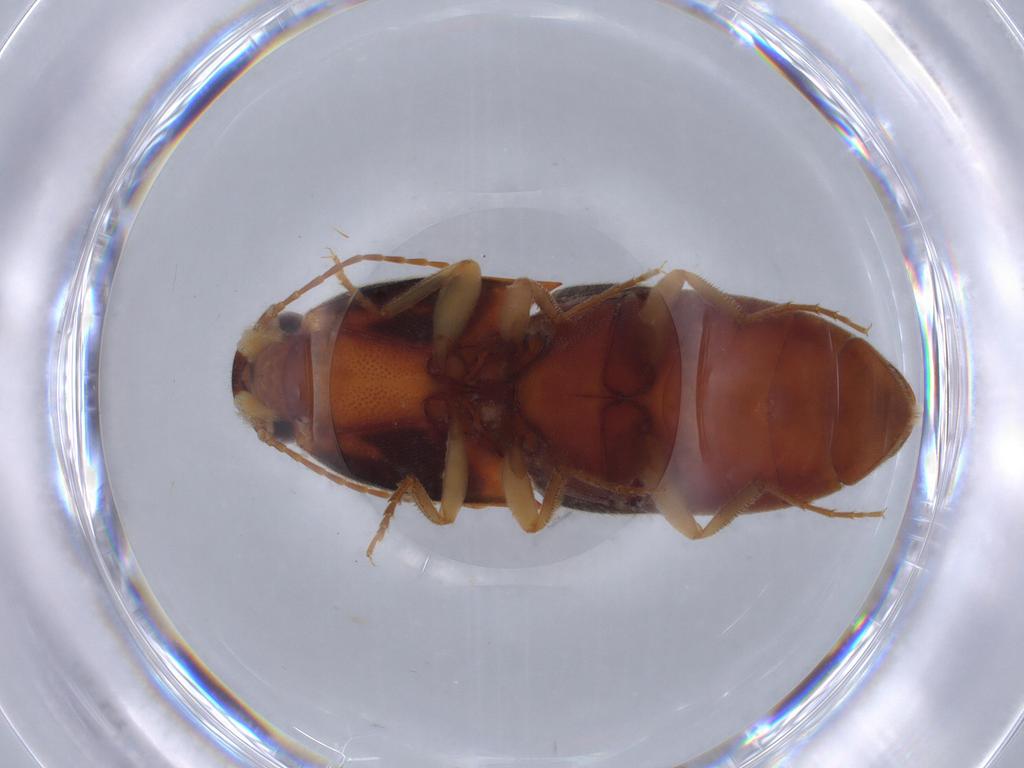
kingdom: Animalia
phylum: Arthropoda
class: Insecta
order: Coleoptera
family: Elateridae
